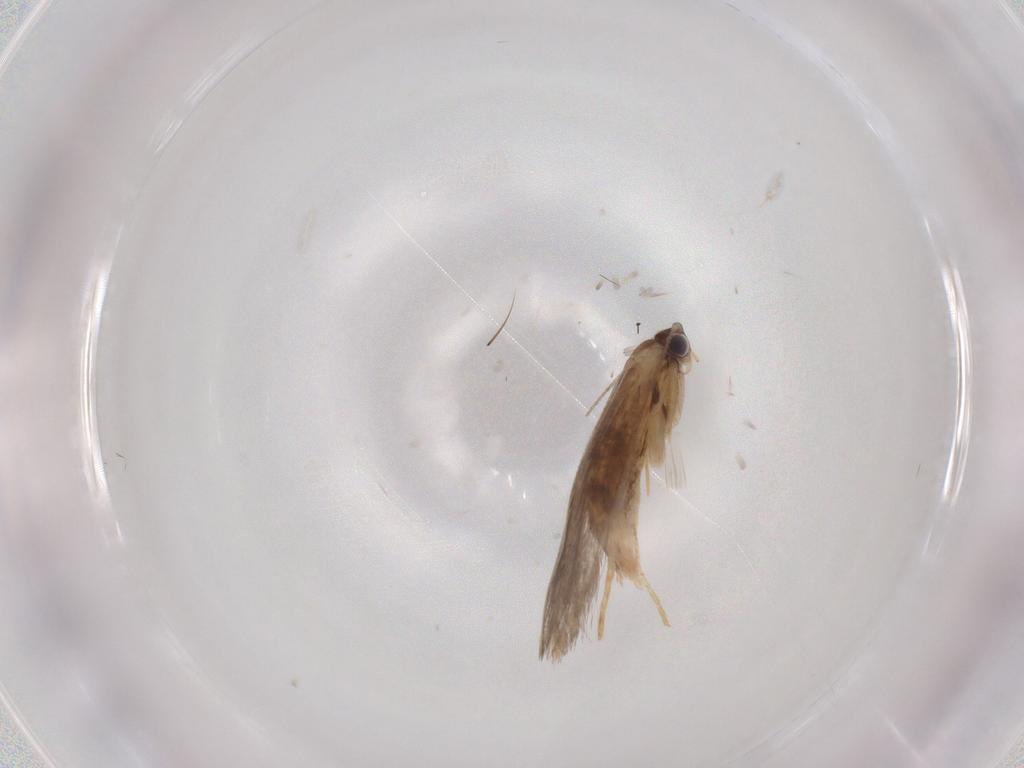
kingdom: Animalia
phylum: Arthropoda
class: Insecta
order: Lepidoptera
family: Tineidae
